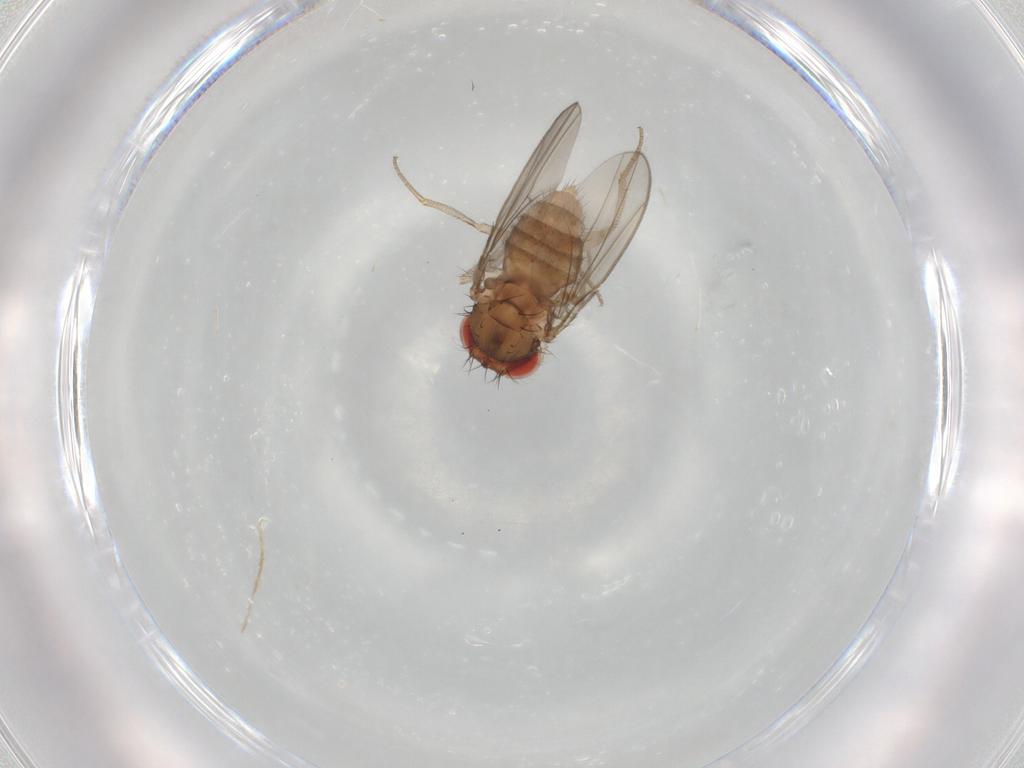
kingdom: Animalia
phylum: Arthropoda
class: Insecta
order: Diptera
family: Drosophilidae
